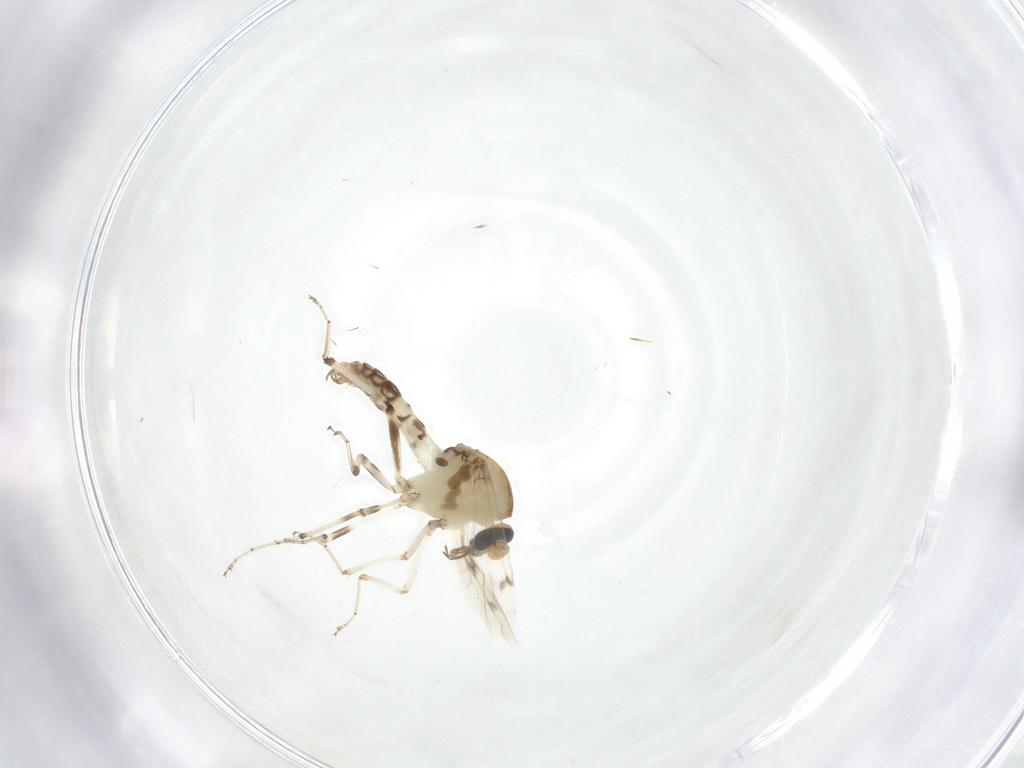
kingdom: Animalia
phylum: Arthropoda
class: Insecta
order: Diptera
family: Ceratopogonidae
